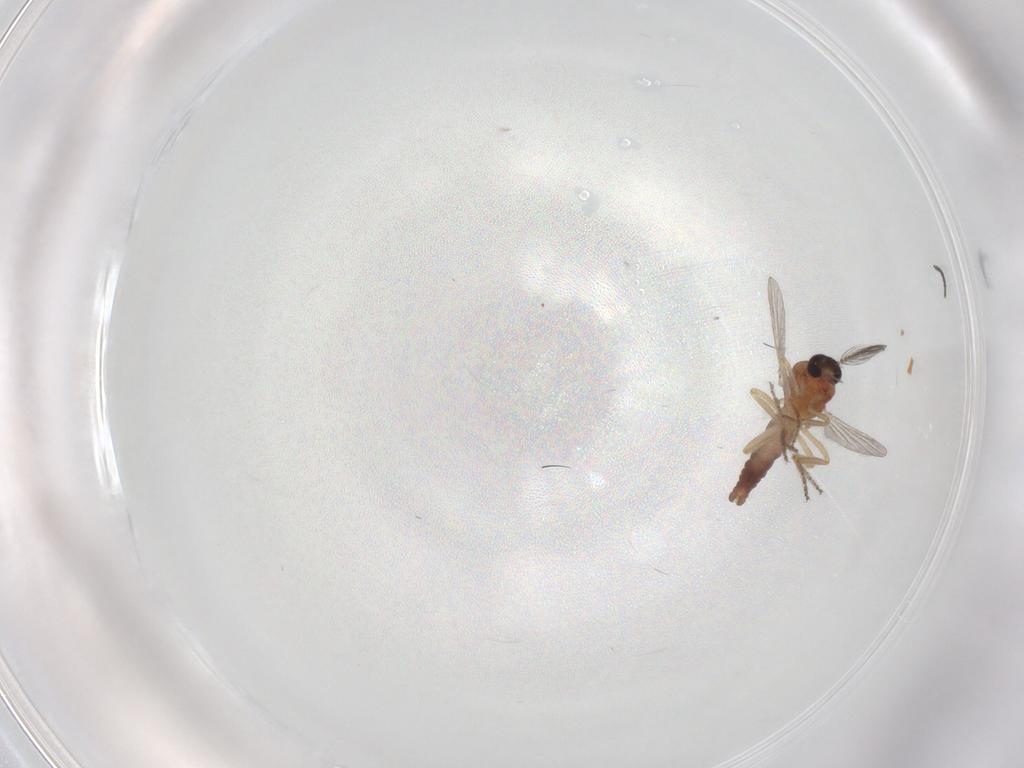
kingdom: Animalia
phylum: Arthropoda
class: Insecta
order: Diptera
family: Ceratopogonidae
